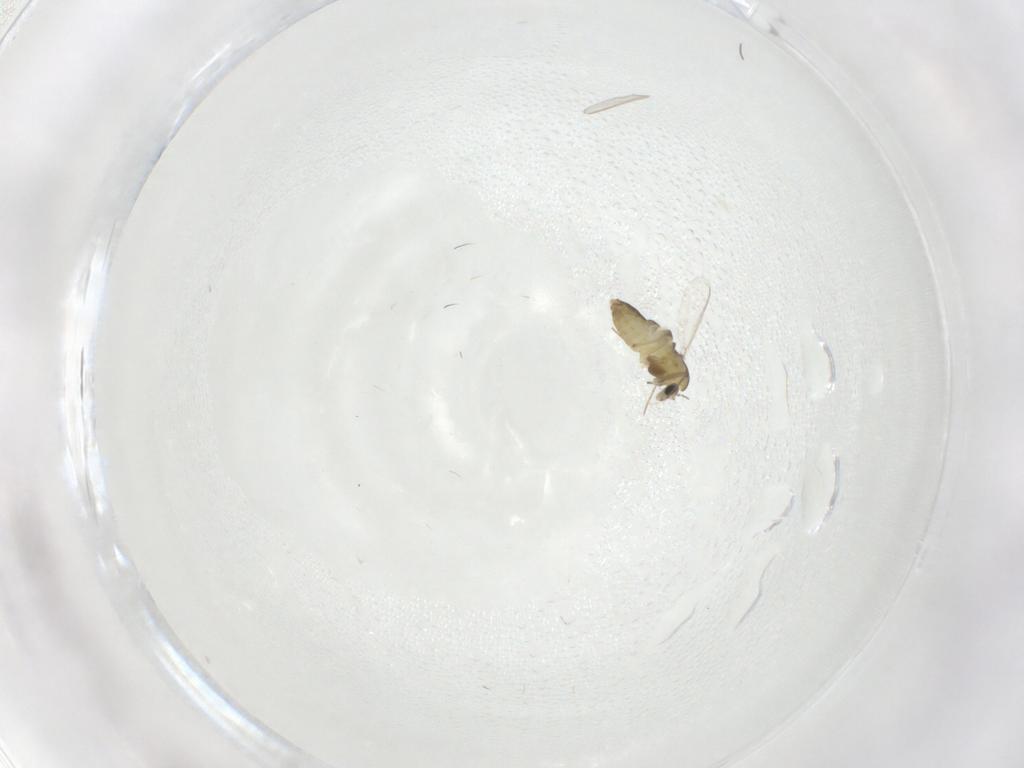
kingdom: Animalia
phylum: Arthropoda
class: Insecta
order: Diptera
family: Chironomidae
